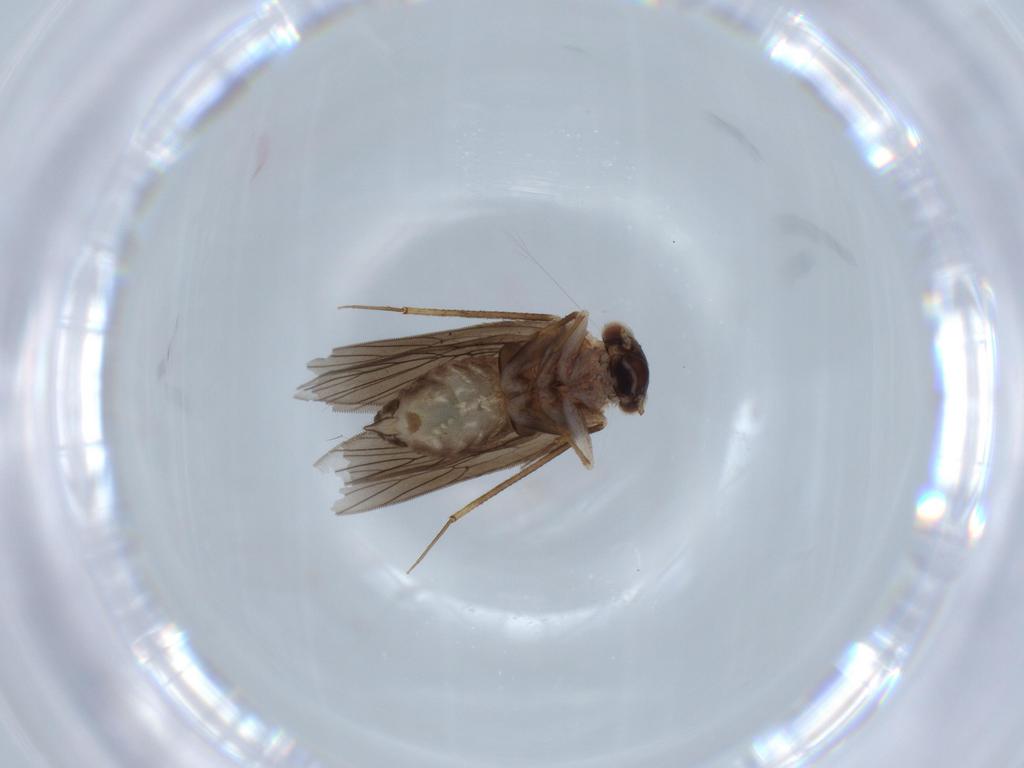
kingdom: Animalia
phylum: Arthropoda
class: Insecta
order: Psocodea
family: Lepidopsocidae
